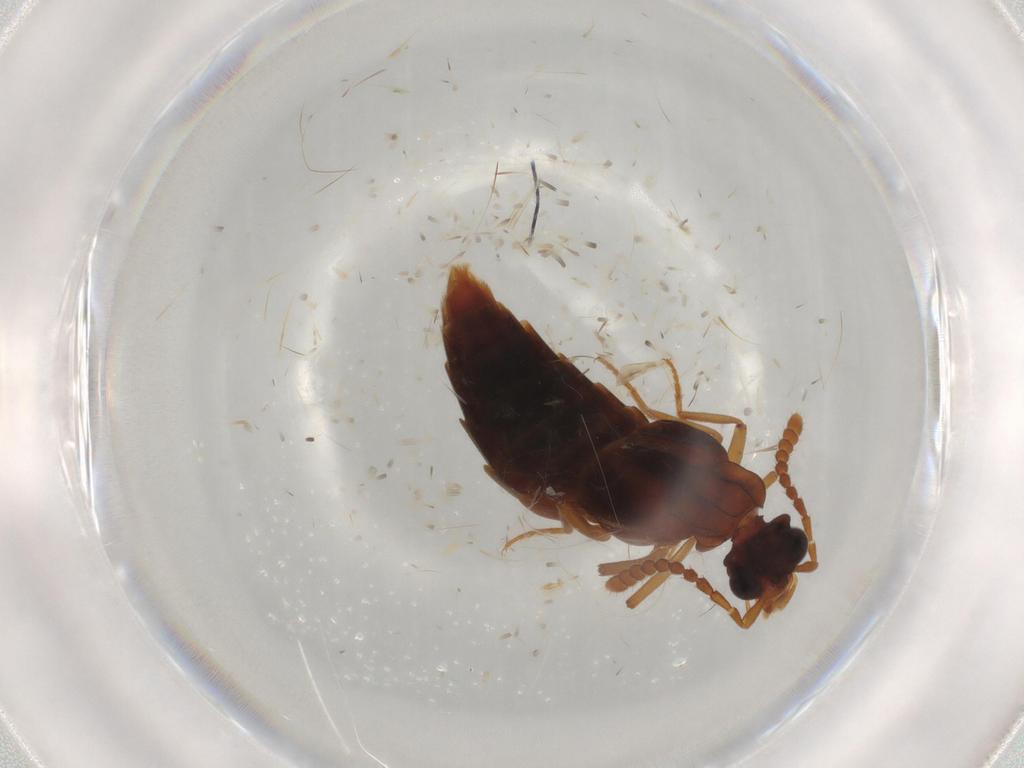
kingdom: Animalia
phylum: Arthropoda
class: Insecta
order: Coleoptera
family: Staphylinidae
